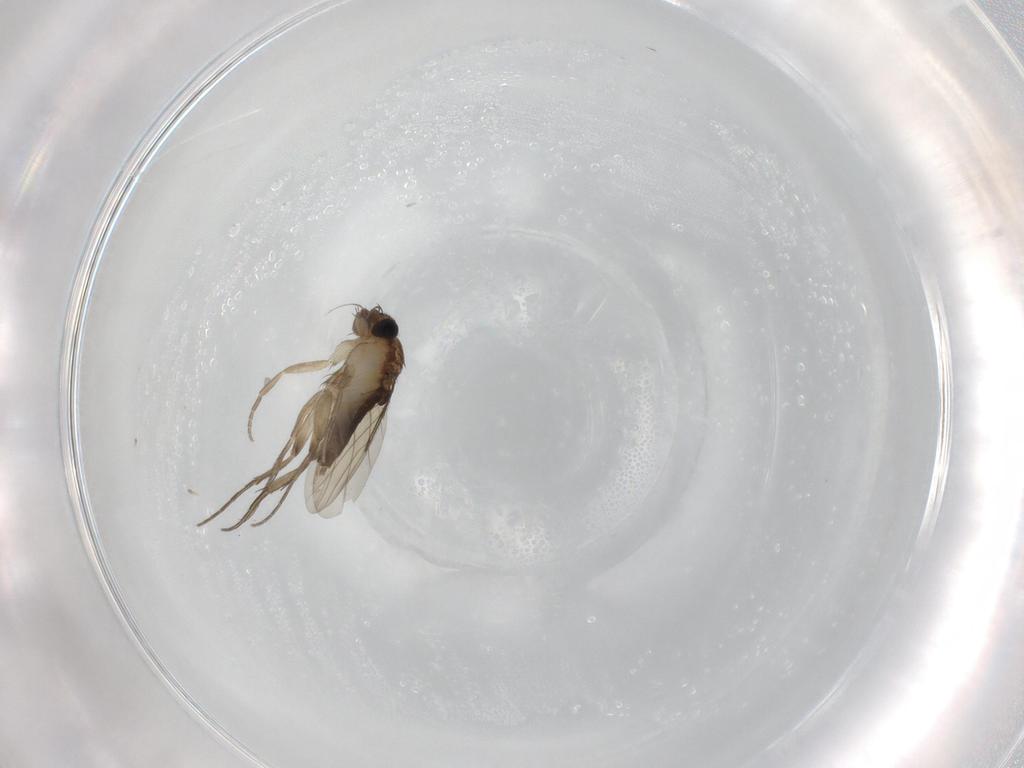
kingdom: Animalia
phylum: Arthropoda
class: Insecta
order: Diptera
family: Phoridae
